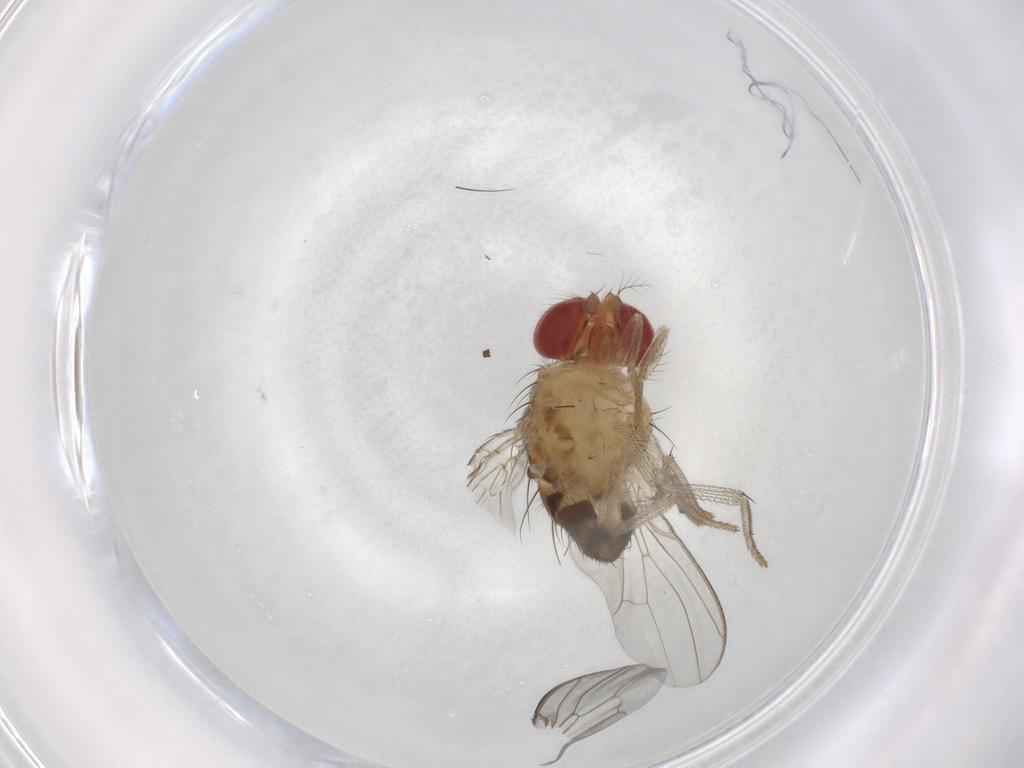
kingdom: Animalia
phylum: Arthropoda
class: Insecta
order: Diptera
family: Drosophilidae
